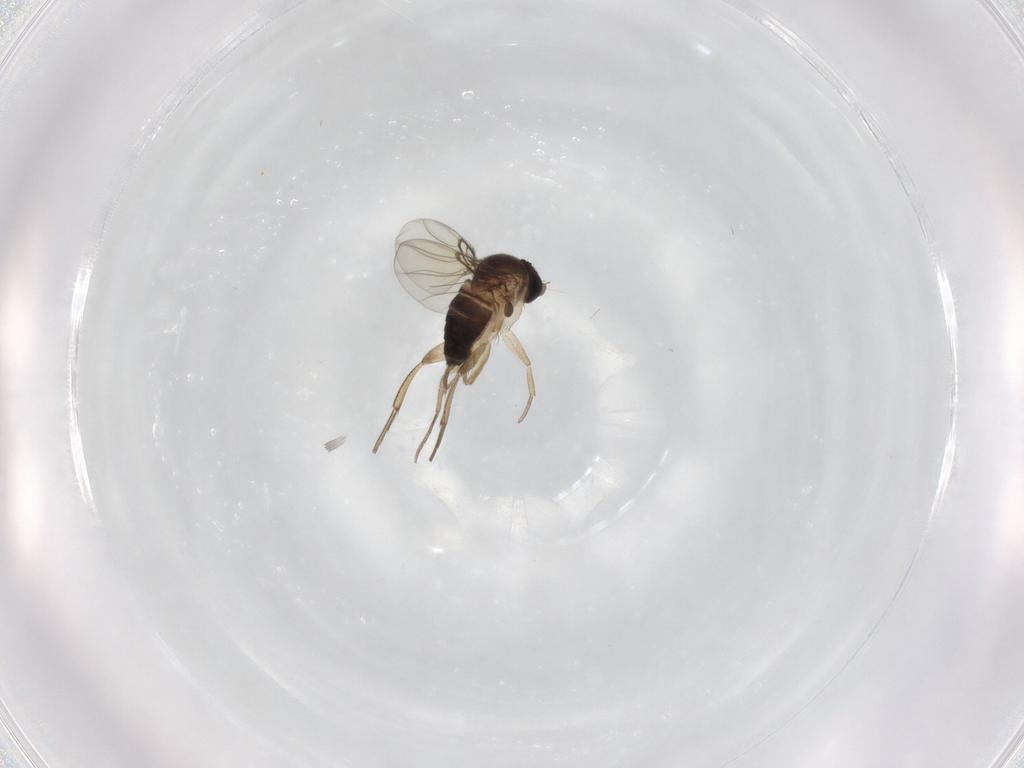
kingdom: Animalia
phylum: Arthropoda
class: Insecta
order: Diptera
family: Phoridae
